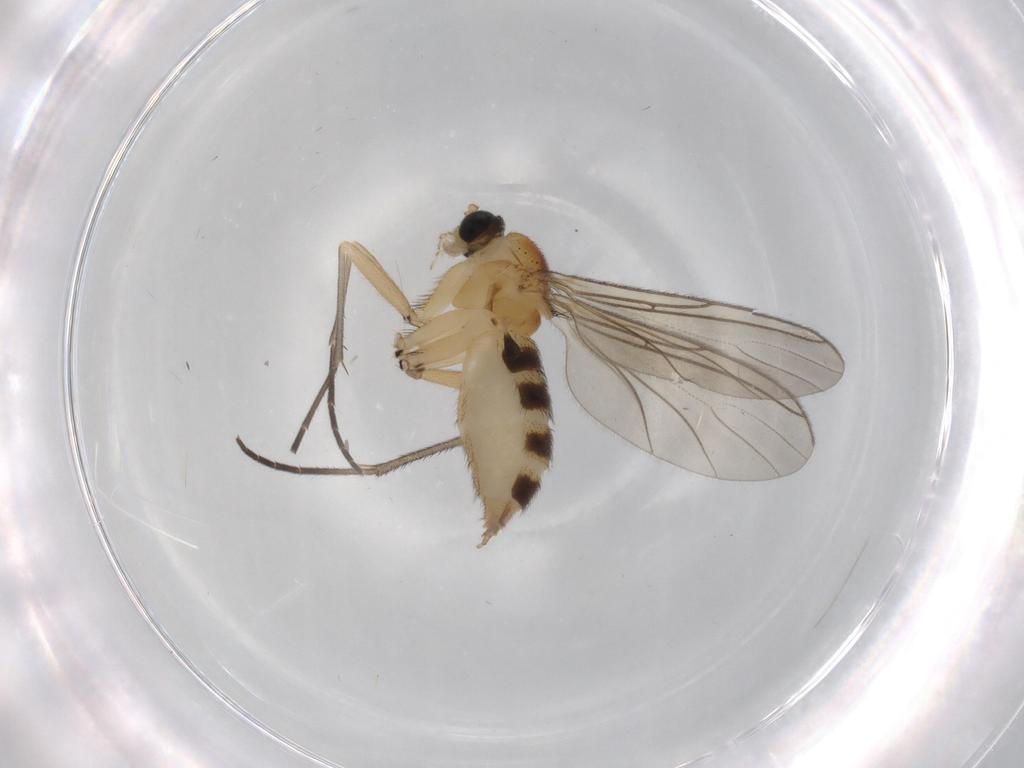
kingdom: Animalia
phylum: Arthropoda
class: Insecta
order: Diptera
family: Sciaridae
